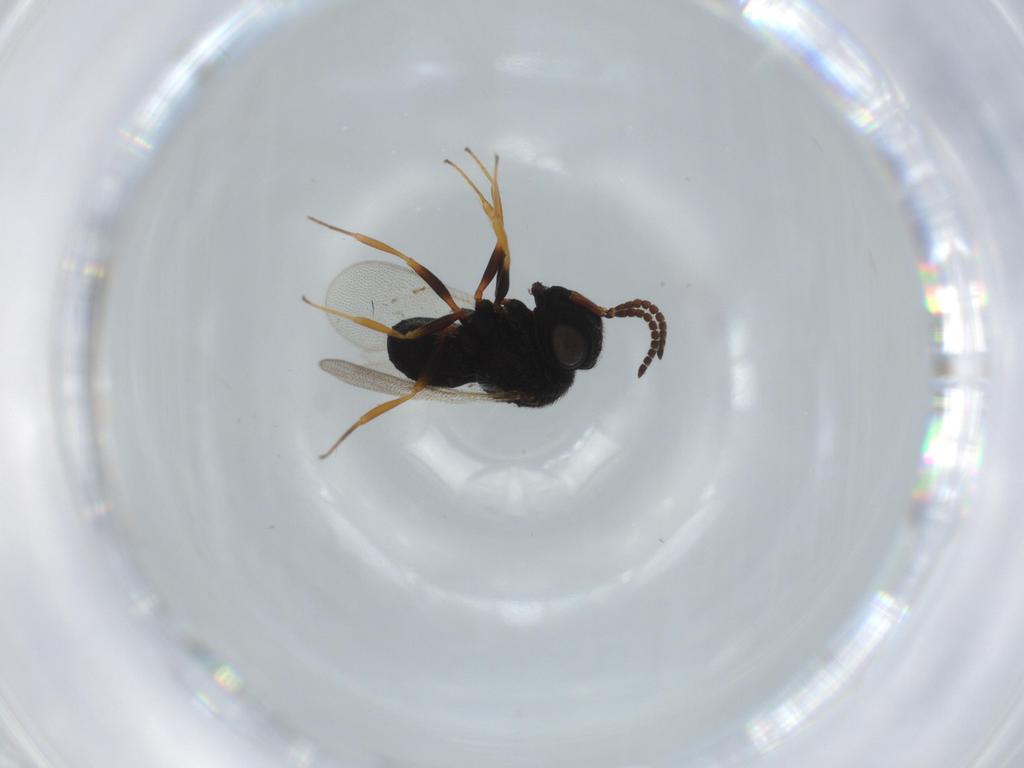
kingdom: Animalia
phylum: Arthropoda
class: Insecta
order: Hymenoptera
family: Scelionidae
